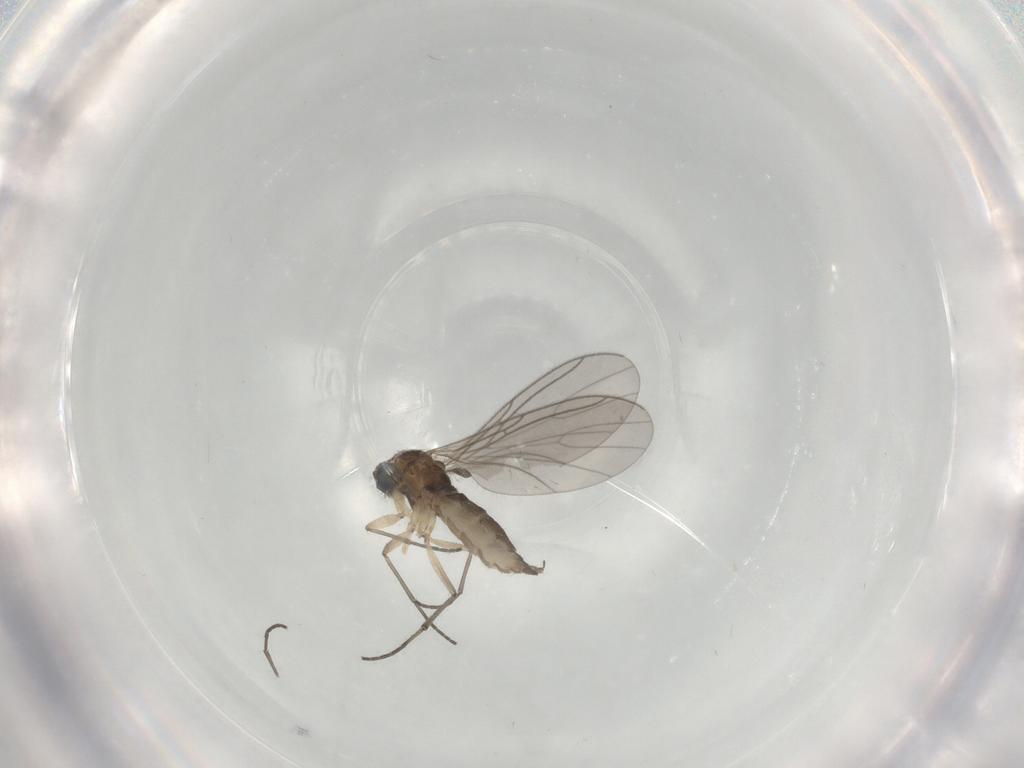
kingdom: Animalia
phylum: Arthropoda
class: Insecta
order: Diptera
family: Sciaridae
